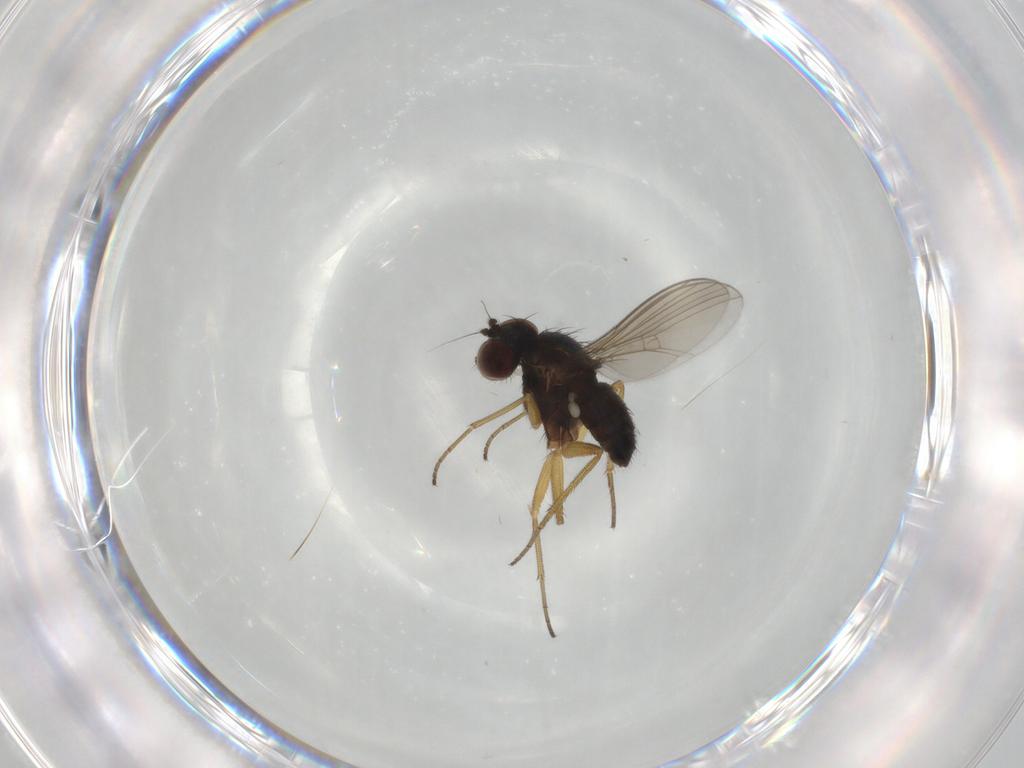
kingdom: Animalia
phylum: Arthropoda
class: Insecta
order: Diptera
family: Dolichopodidae
